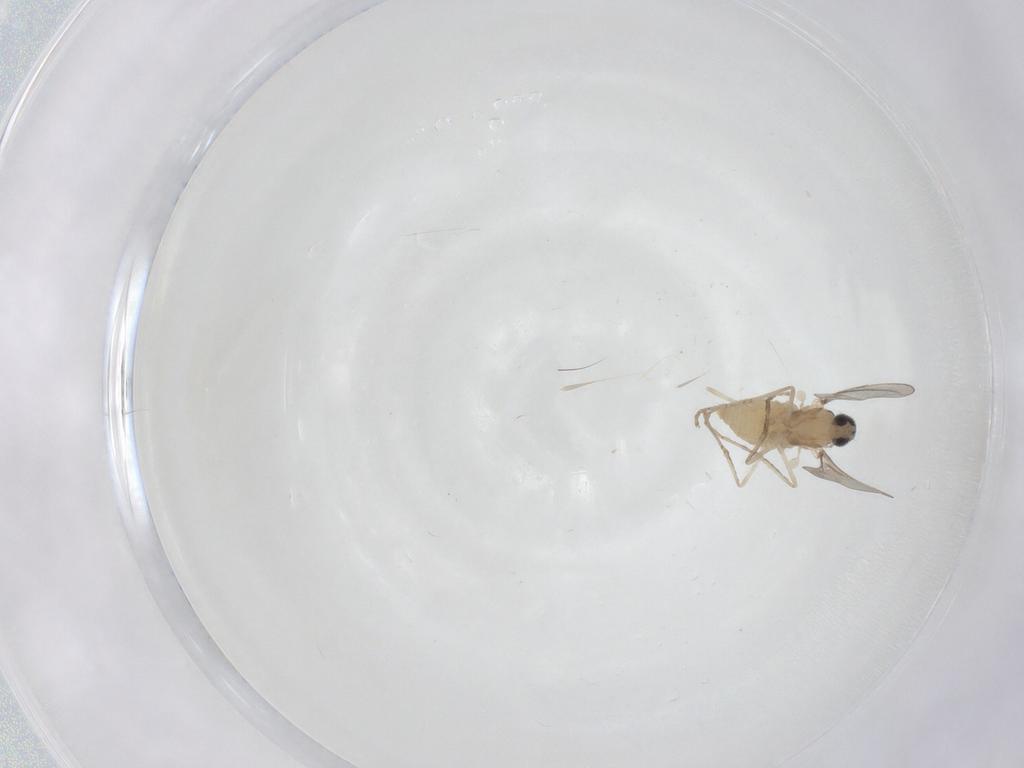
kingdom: Animalia
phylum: Arthropoda
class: Insecta
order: Diptera
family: Cecidomyiidae
